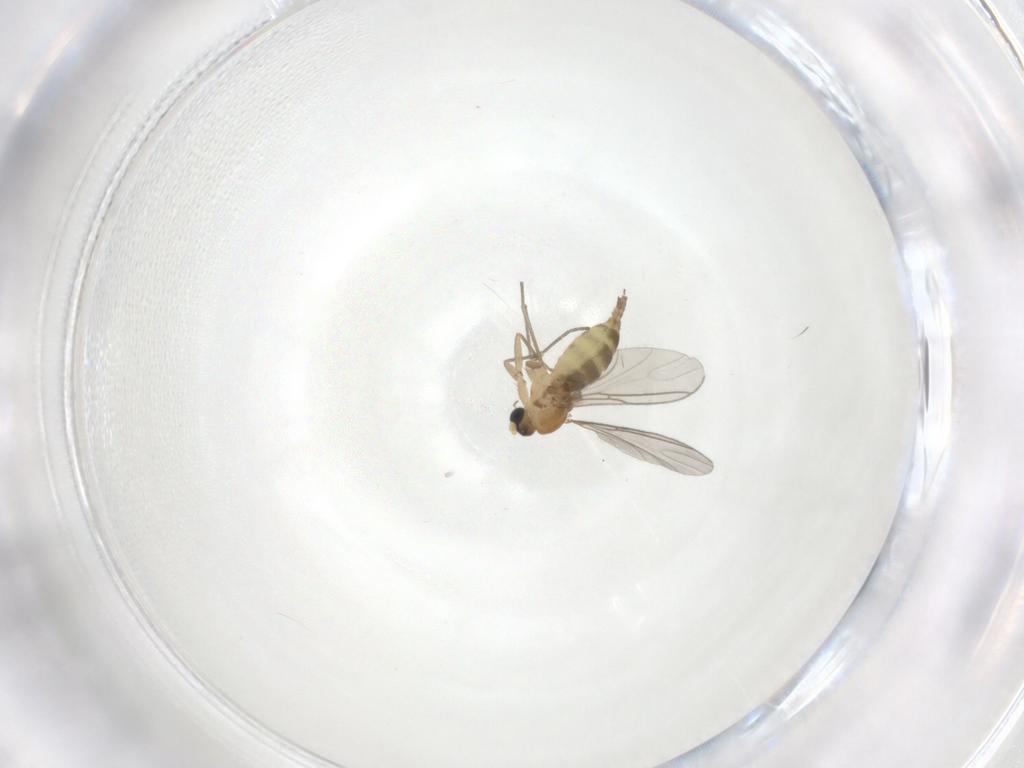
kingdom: Animalia
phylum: Arthropoda
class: Insecta
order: Diptera
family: Sciaridae
